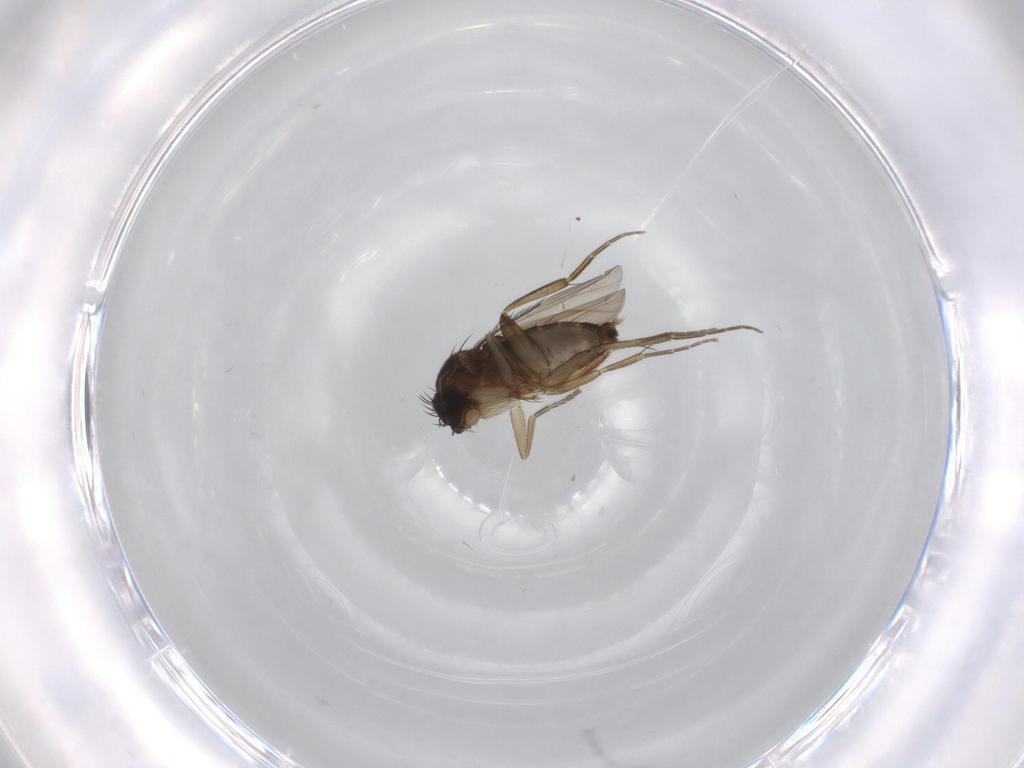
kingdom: Animalia
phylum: Arthropoda
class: Insecta
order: Diptera
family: Phoridae
